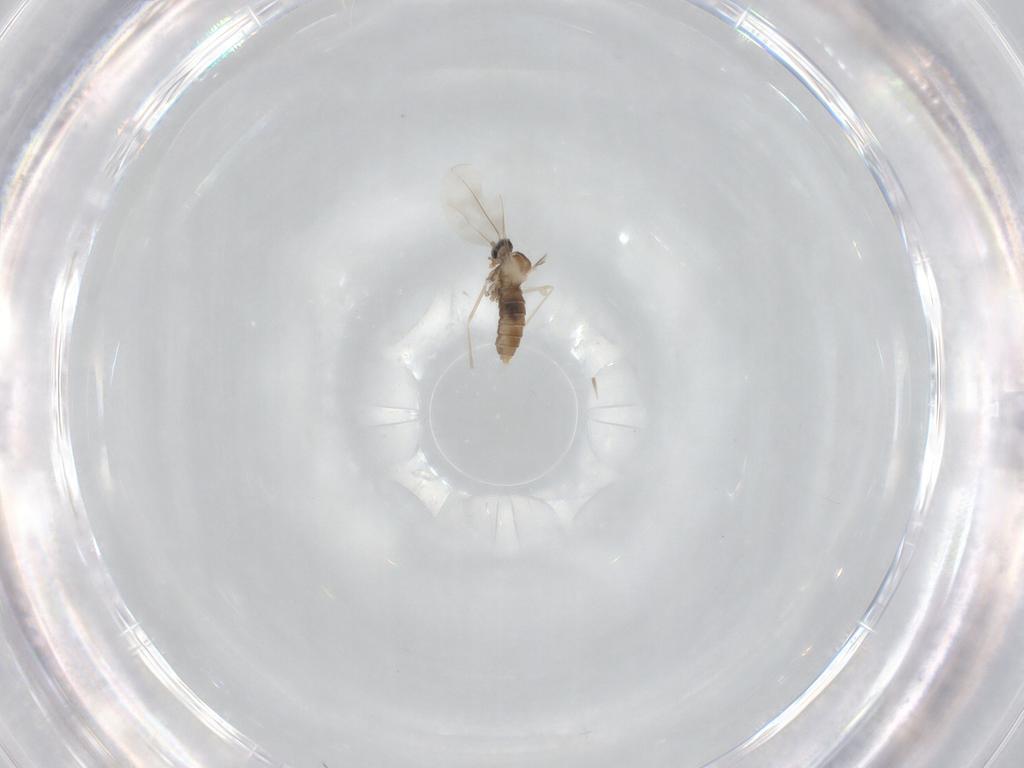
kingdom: Animalia
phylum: Arthropoda
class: Insecta
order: Diptera
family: Cecidomyiidae
